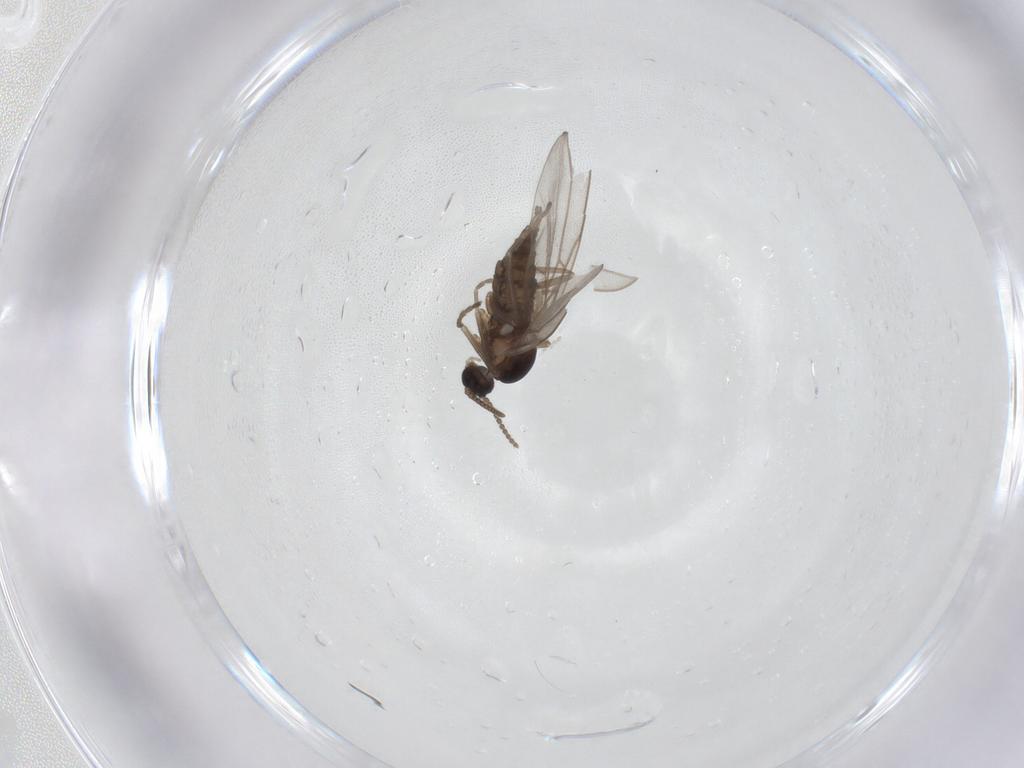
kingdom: Animalia
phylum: Arthropoda
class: Insecta
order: Diptera
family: Cecidomyiidae
